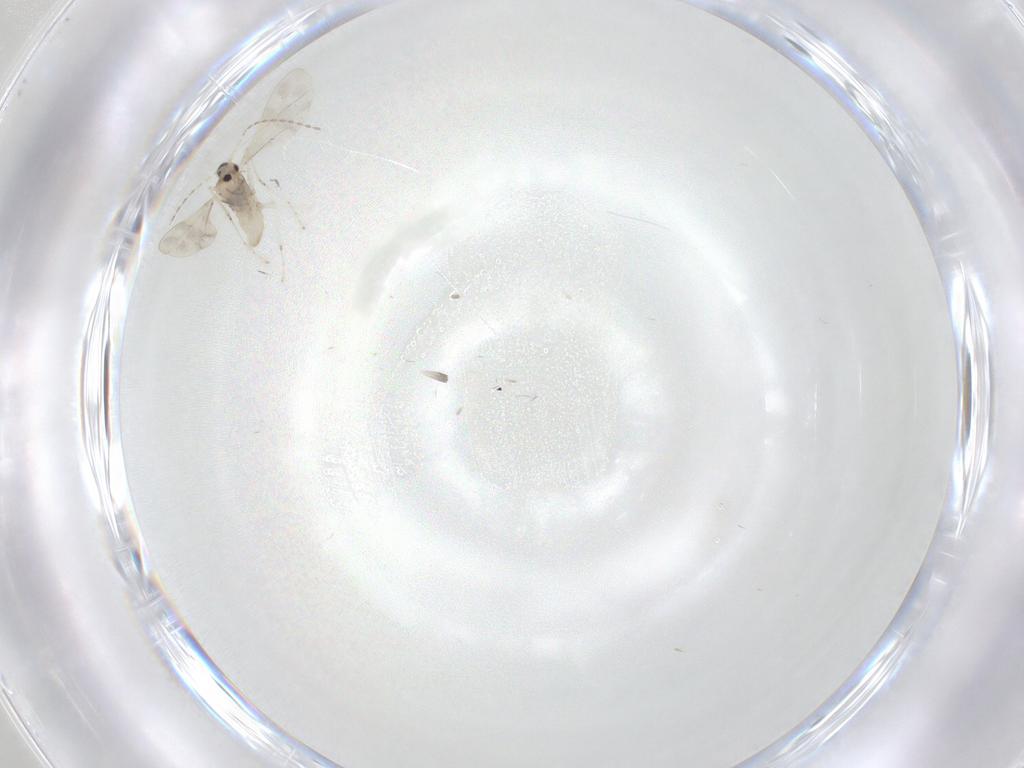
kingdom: Animalia
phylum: Arthropoda
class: Insecta
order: Diptera
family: Cecidomyiidae
